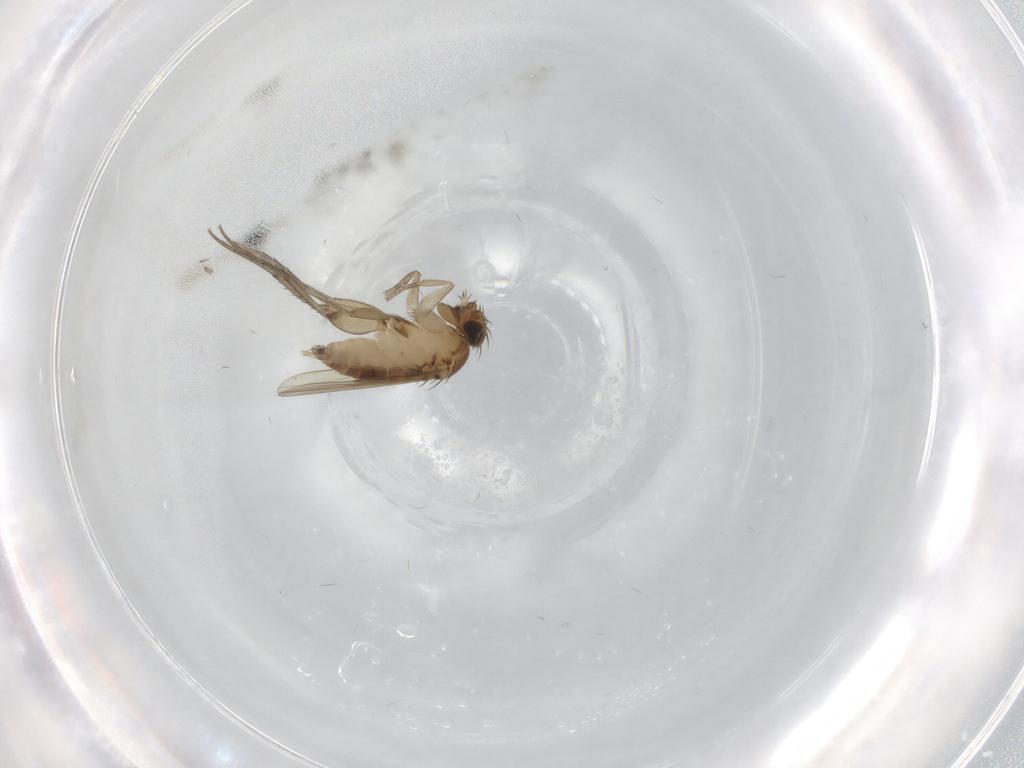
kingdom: Animalia
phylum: Arthropoda
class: Insecta
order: Diptera
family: Phoridae
